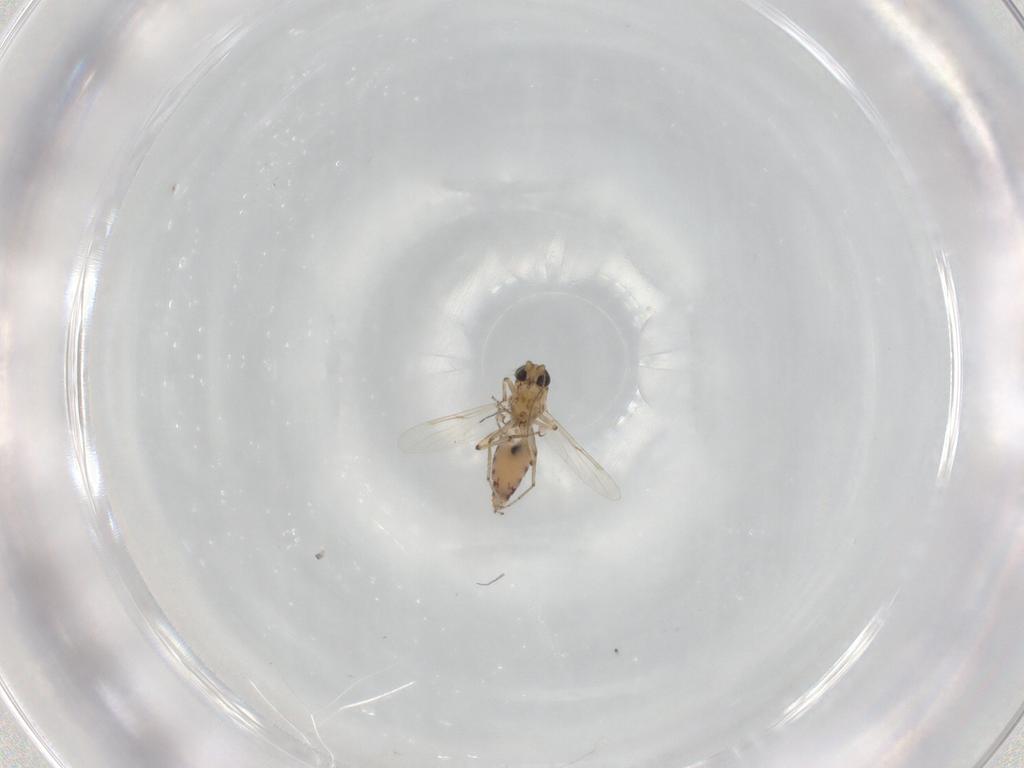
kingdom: Animalia
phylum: Arthropoda
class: Insecta
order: Diptera
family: Ceratopogonidae
